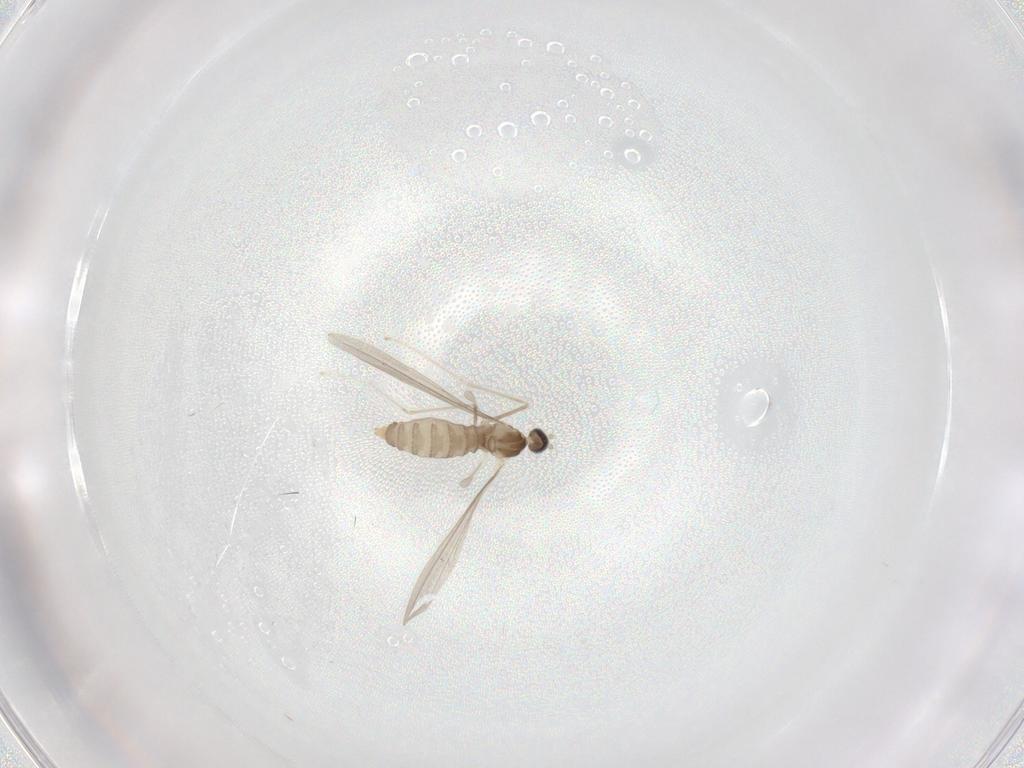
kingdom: Animalia
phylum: Arthropoda
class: Insecta
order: Diptera
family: Cecidomyiidae
